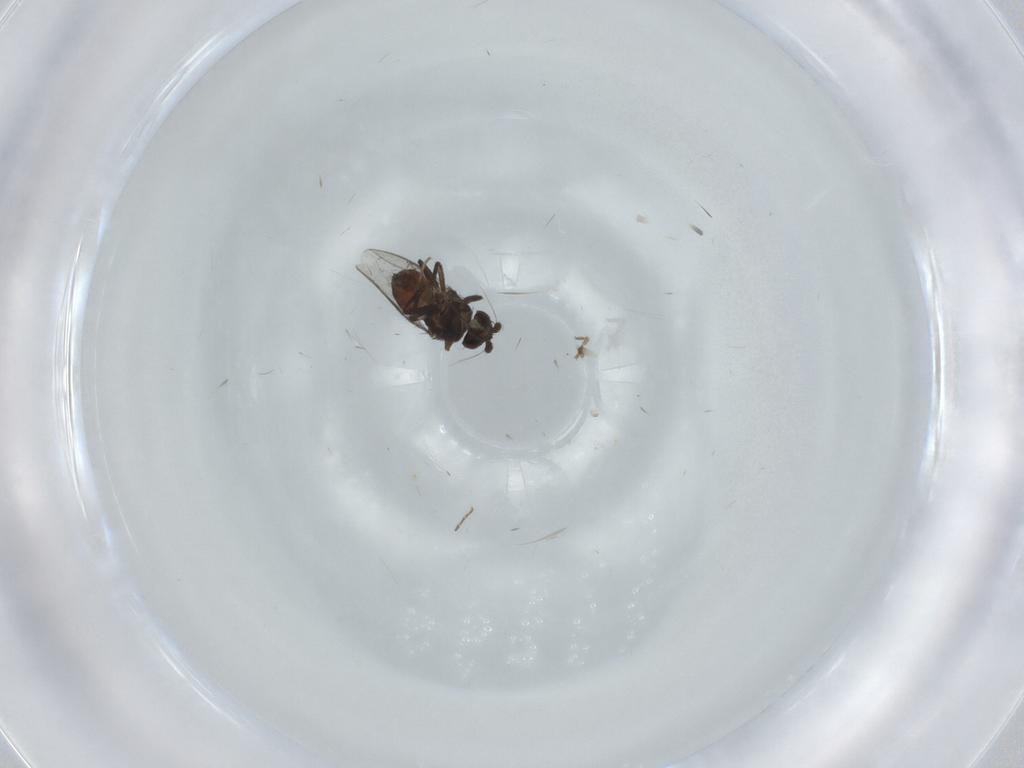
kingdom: Animalia
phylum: Arthropoda
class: Insecta
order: Diptera
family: Sphaeroceridae
